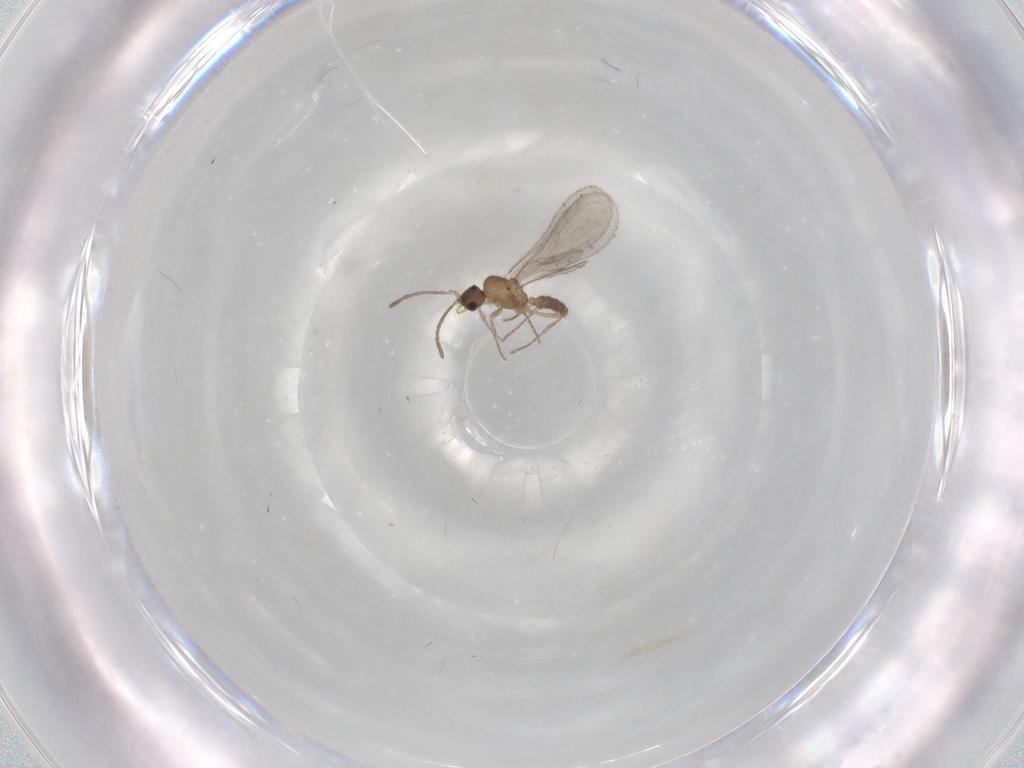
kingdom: Animalia
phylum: Arthropoda
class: Insecta
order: Hymenoptera
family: Formicidae
